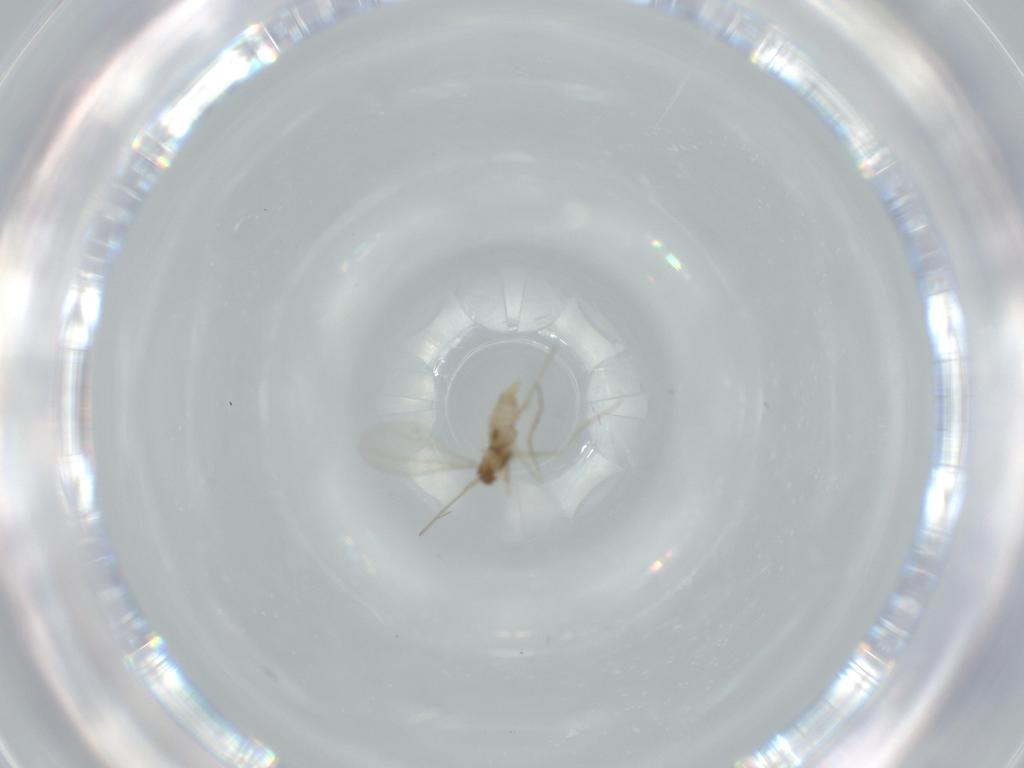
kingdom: Animalia
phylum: Arthropoda
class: Insecta
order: Diptera
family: Cecidomyiidae
